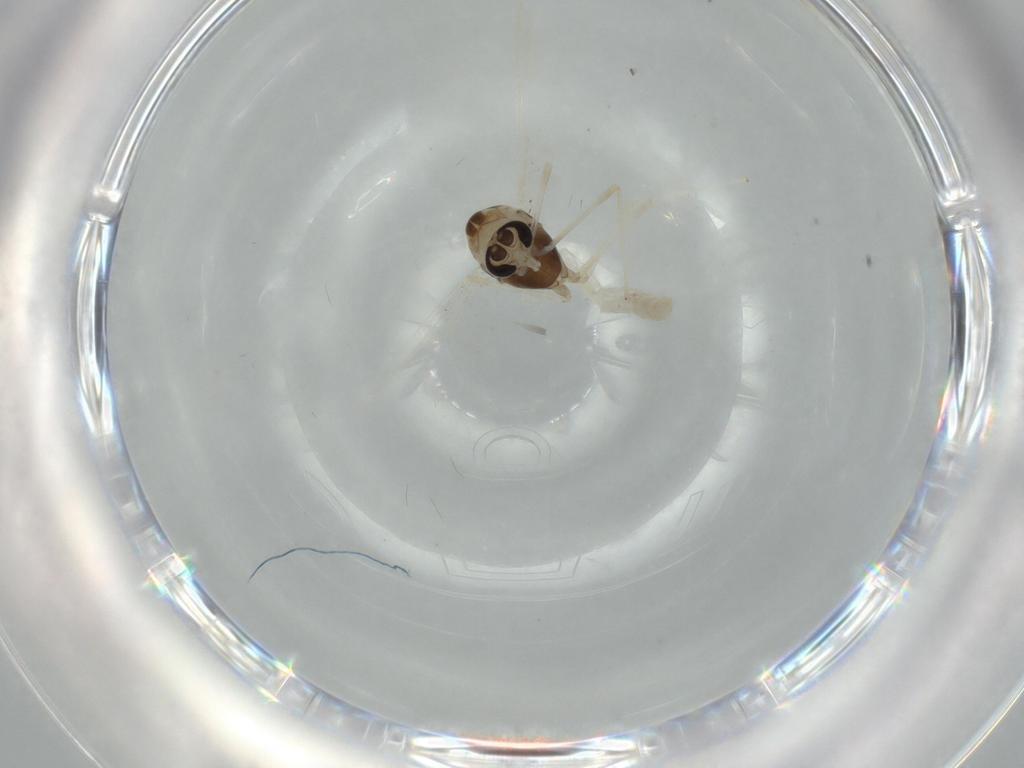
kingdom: Animalia
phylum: Arthropoda
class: Insecta
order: Diptera
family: Chironomidae
